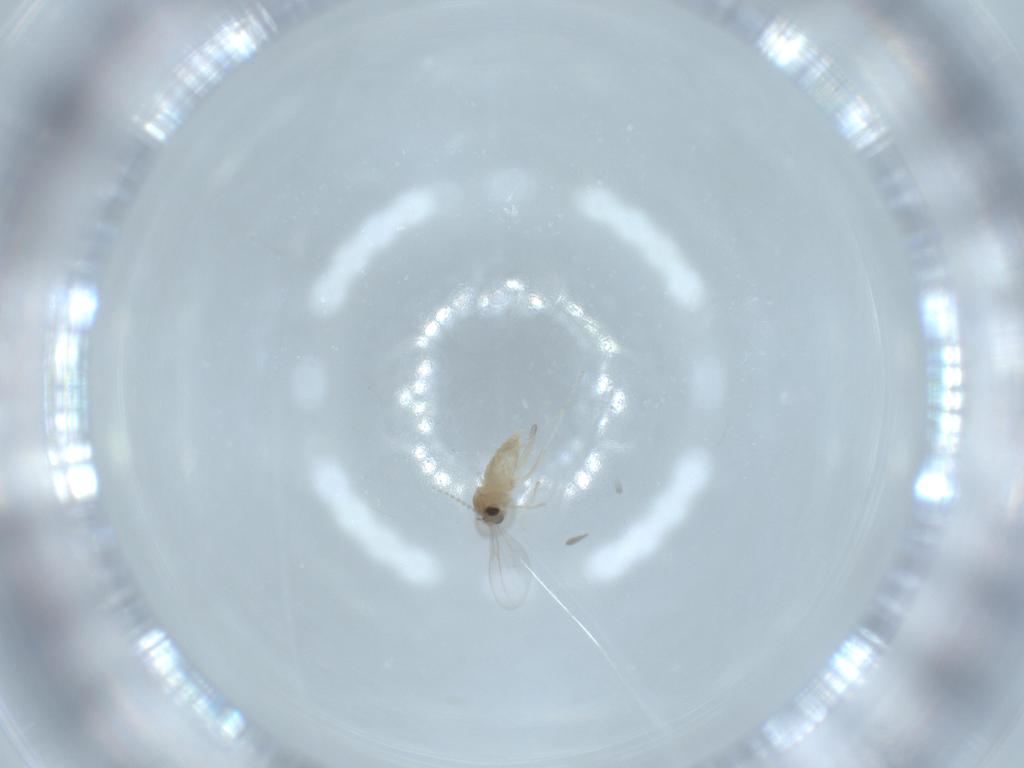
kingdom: Animalia
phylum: Arthropoda
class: Insecta
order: Diptera
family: Cecidomyiidae
